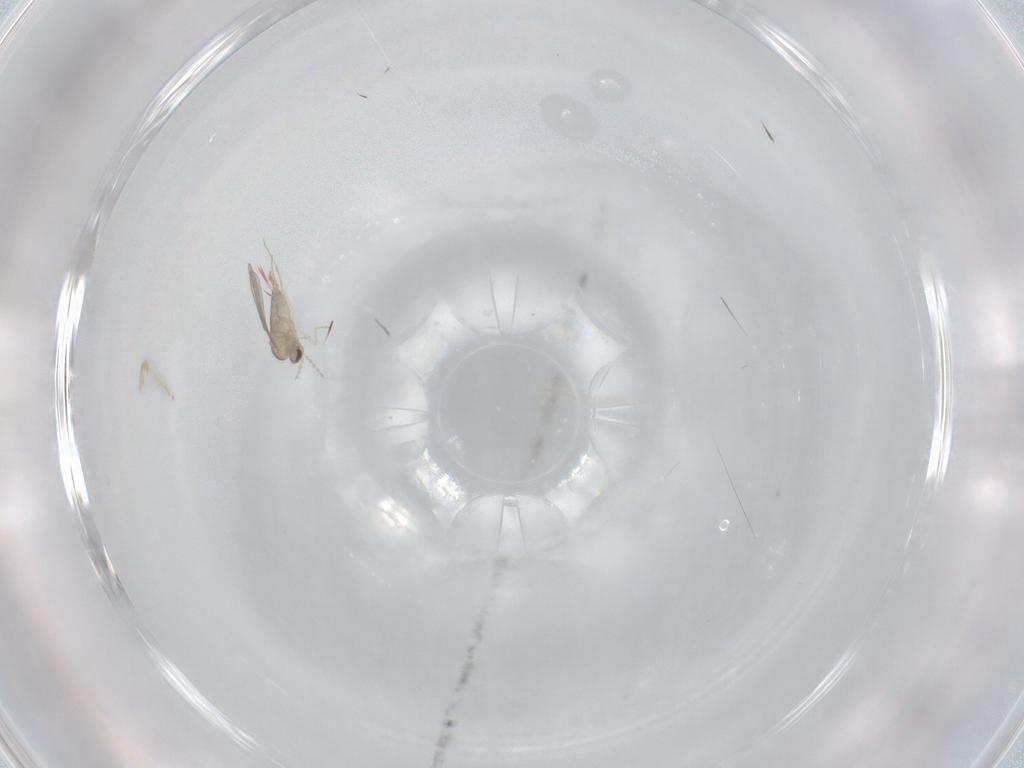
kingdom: Animalia
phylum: Arthropoda
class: Insecta
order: Diptera
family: Cecidomyiidae
